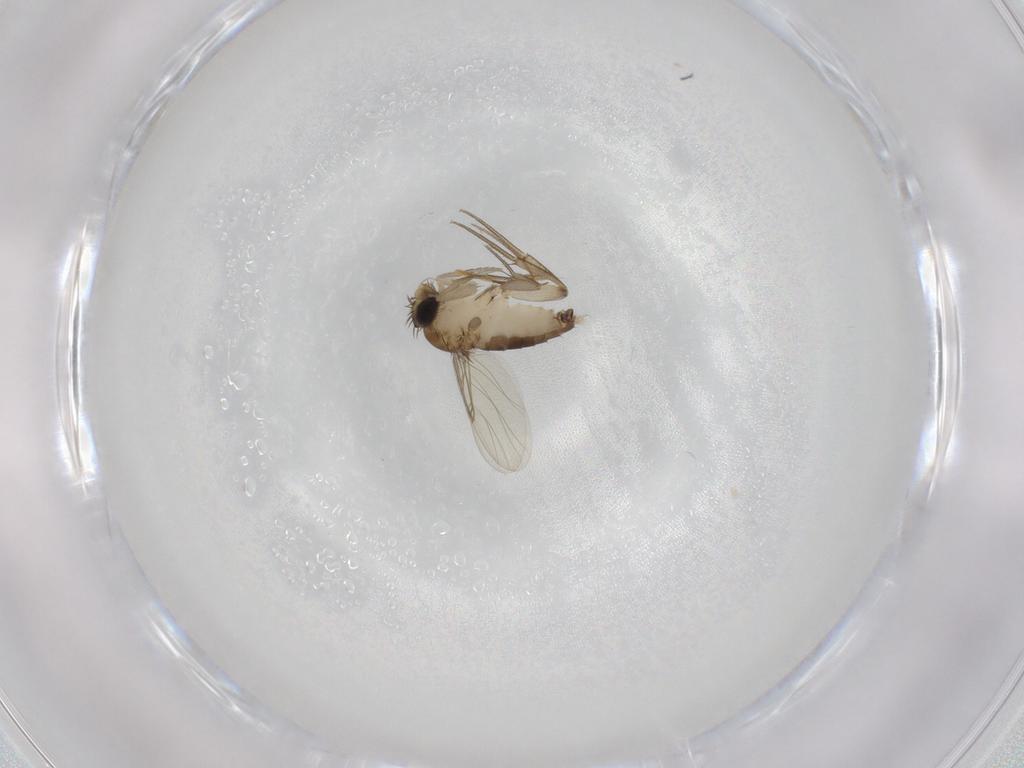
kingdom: Animalia
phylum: Arthropoda
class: Insecta
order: Diptera
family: Phoridae
